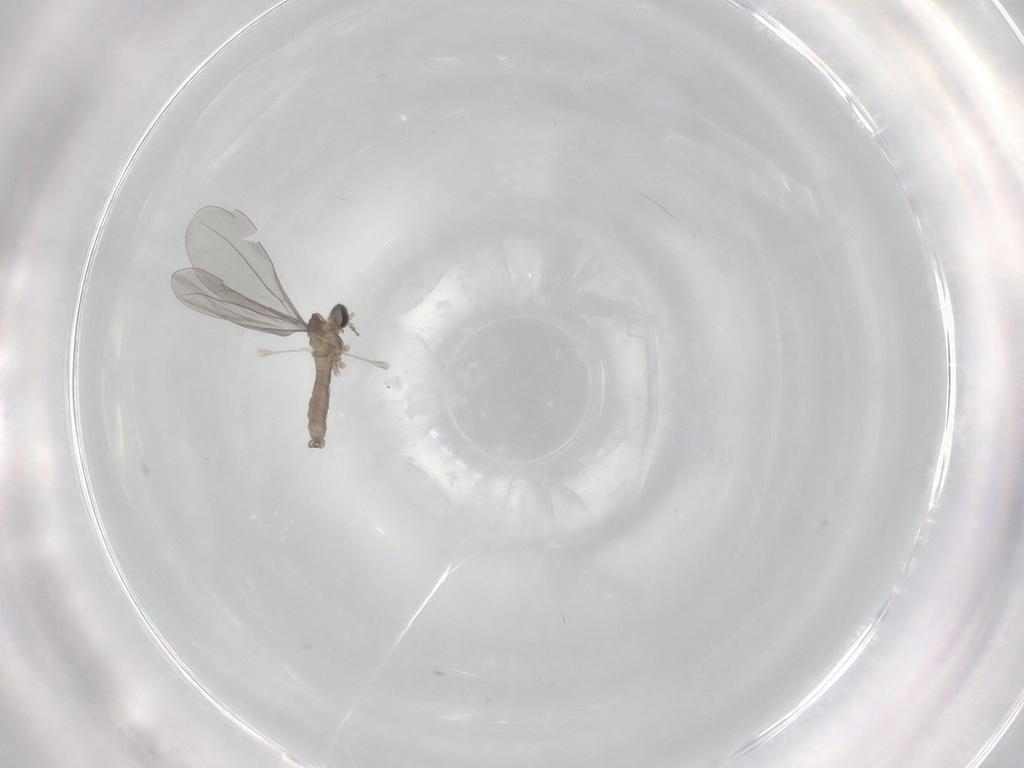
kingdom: Animalia
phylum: Arthropoda
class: Insecta
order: Diptera
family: Cecidomyiidae
